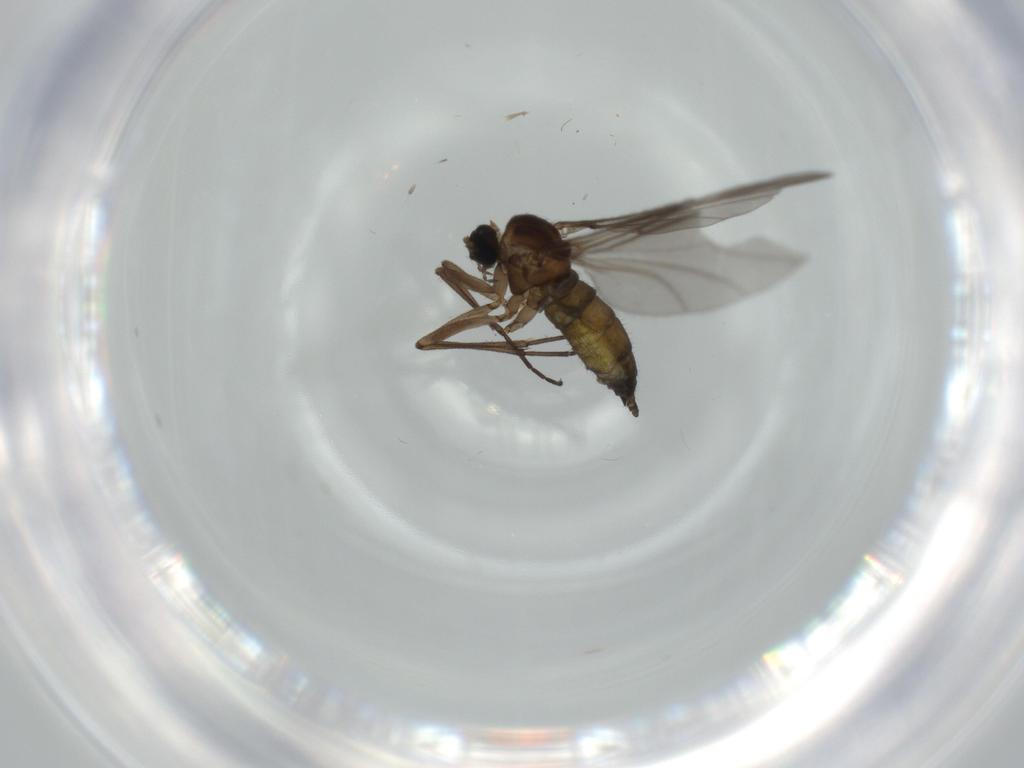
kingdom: Animalia
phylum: Arthropoda
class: Insecta
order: Diptera
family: Sciaridae
